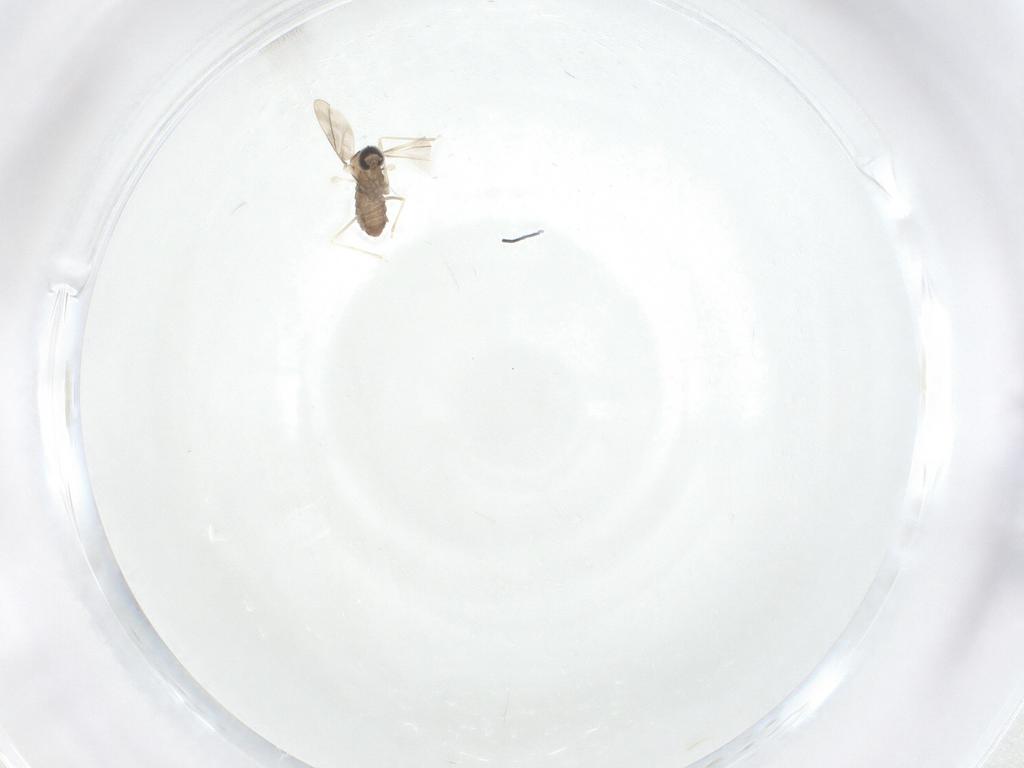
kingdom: Animalia
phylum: Arthropoda
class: Insecta
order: Diptera
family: Cecidomyiidae
